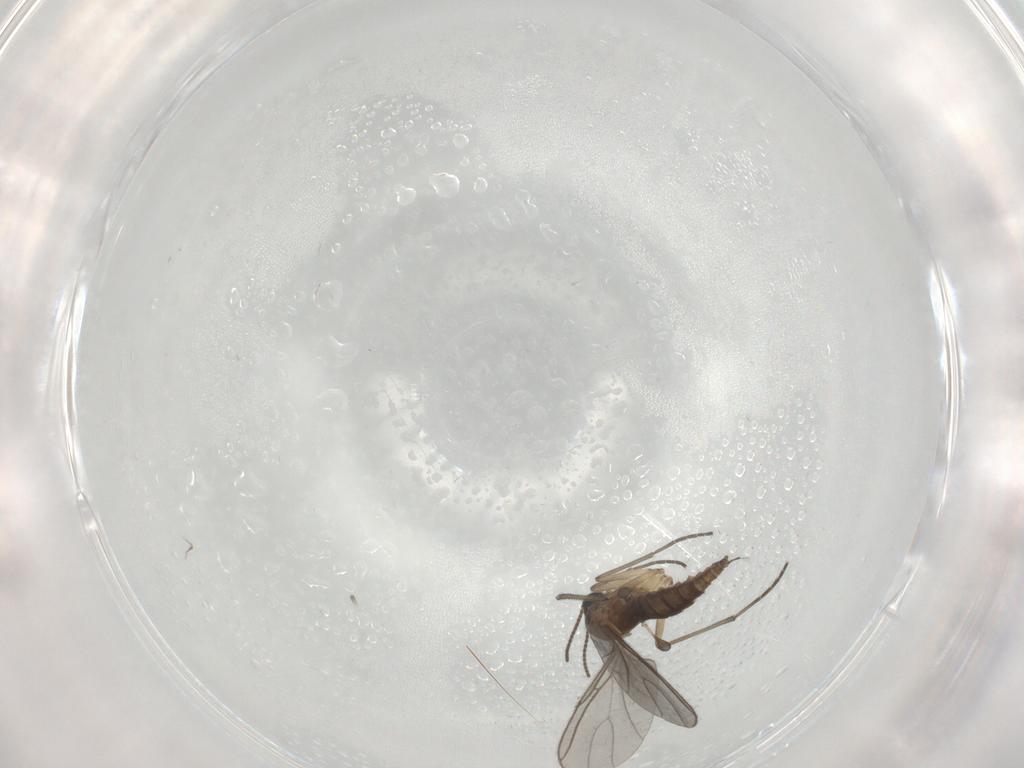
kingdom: Animalia
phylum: Arthropoda
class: Insecta
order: Diptera
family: Sciaridae
